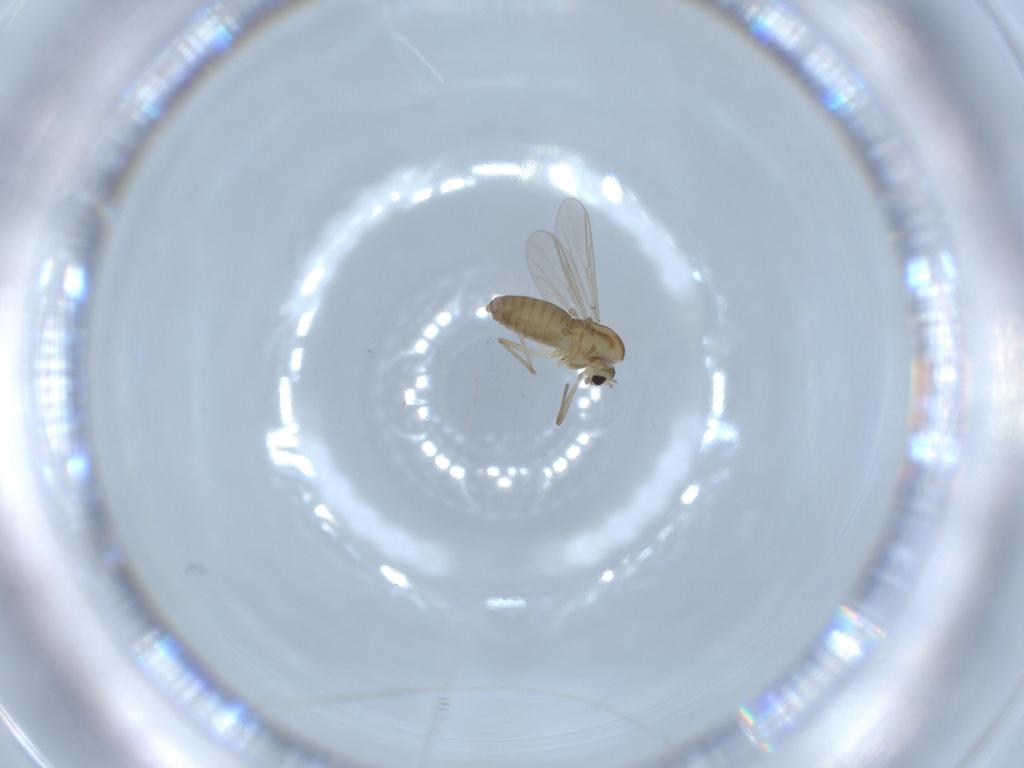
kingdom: Animalia
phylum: Arthropoda
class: Insecta
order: Diptera
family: Chironomidae
